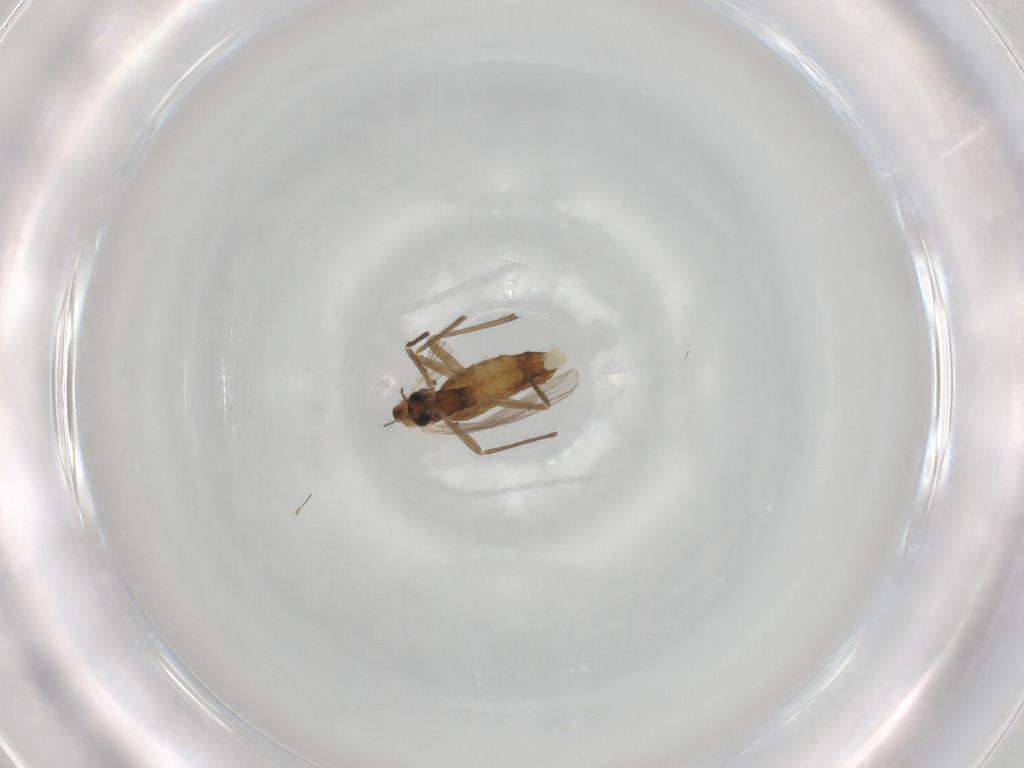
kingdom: Animalia
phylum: Arthropoda
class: Insecta
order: Diptera
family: Chironomidae
